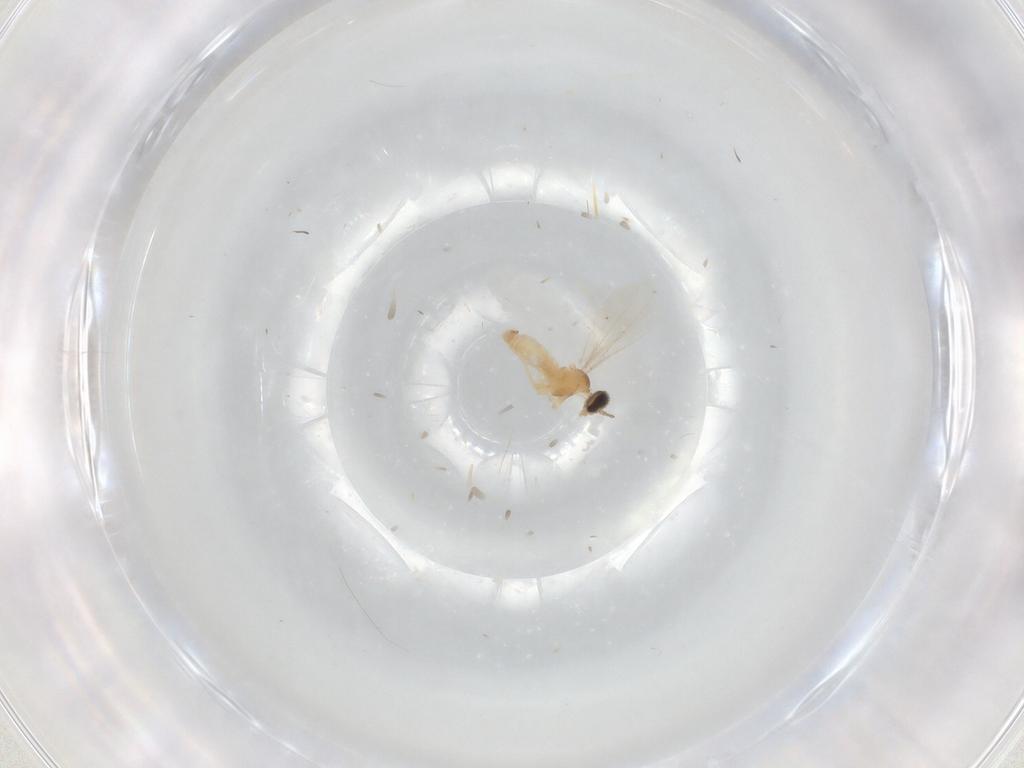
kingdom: Animalia
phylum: Arthropoda
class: Insecta
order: Diptera
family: Cecidomyiidae
